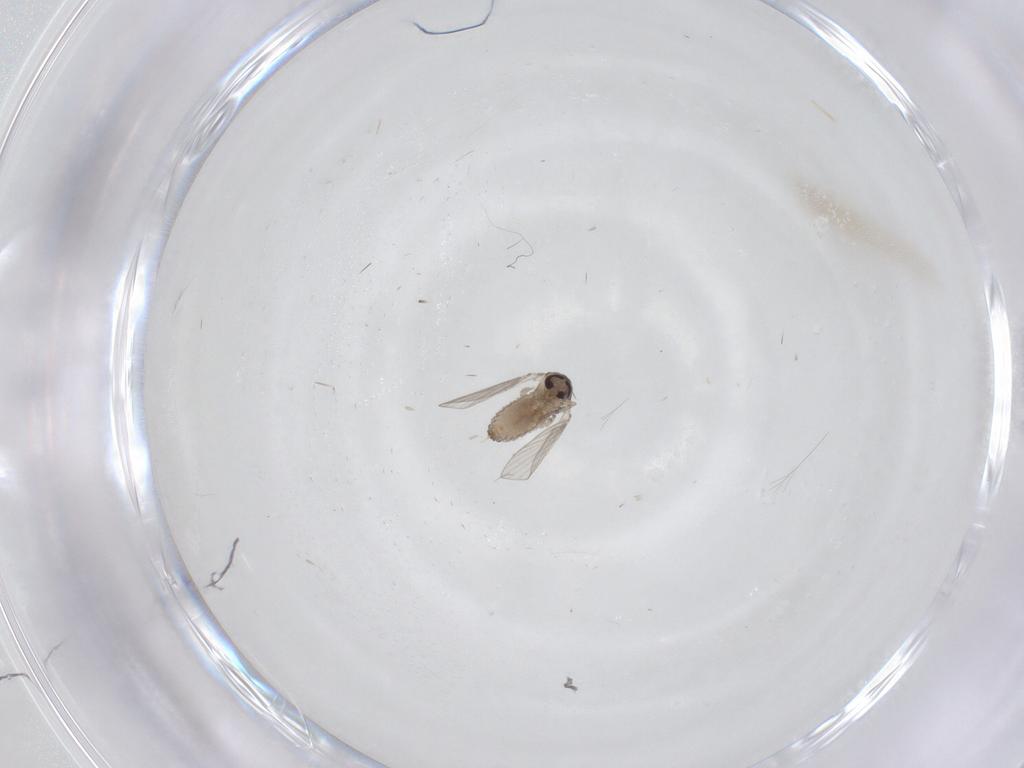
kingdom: Animalia
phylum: Arthropoda
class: Insecta
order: Diptera
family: Psychodidae
